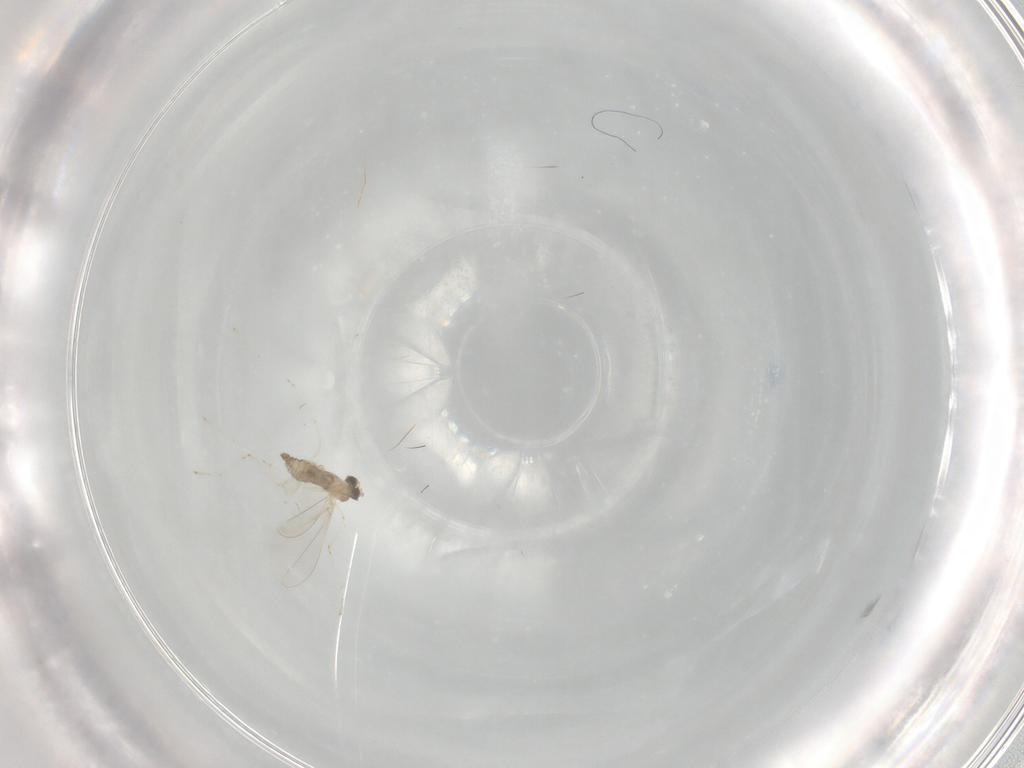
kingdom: Animalia
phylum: Arthropoda
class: Insecta
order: Diptera
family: Cecidomyiidae
